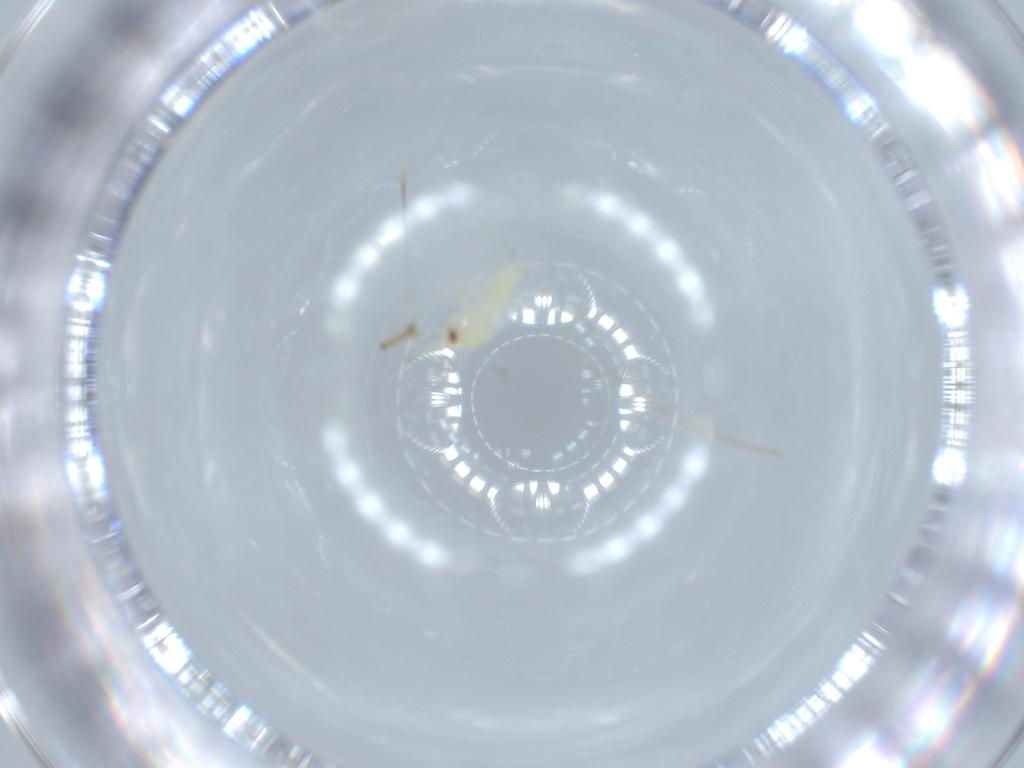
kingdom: Animalia
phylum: Arthropoda
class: Insecta
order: Hemiptera
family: Aleyrodidae
